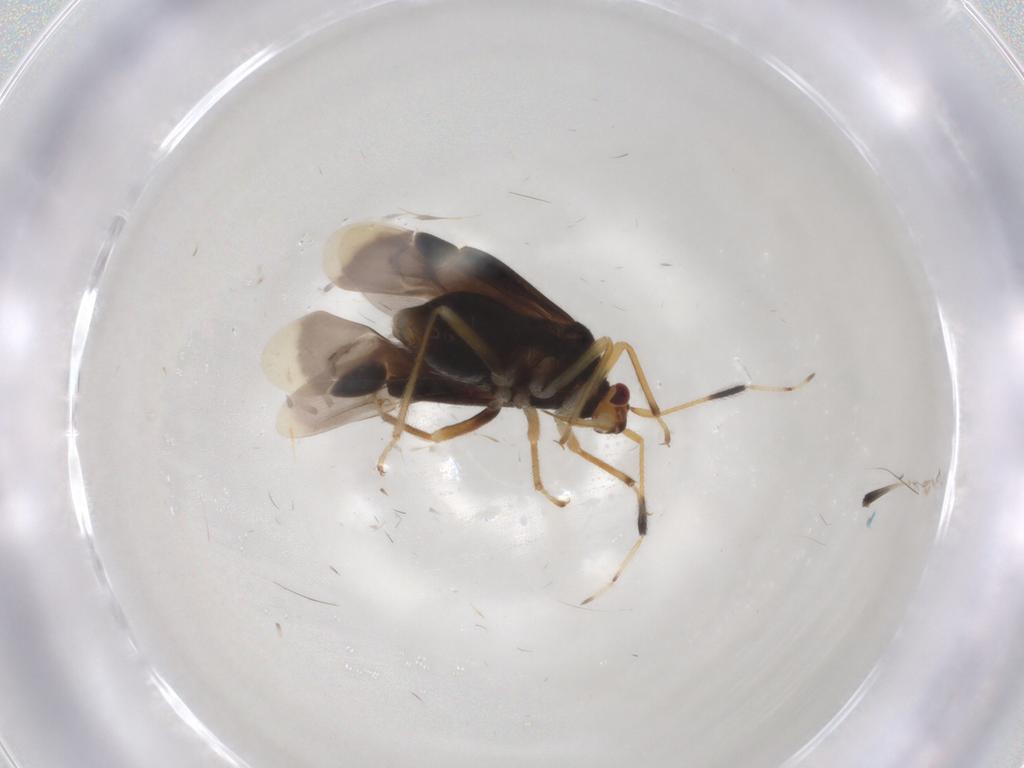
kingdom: Animalia
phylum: Arthropoda
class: Insecta
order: Hemiptera
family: Miridae
